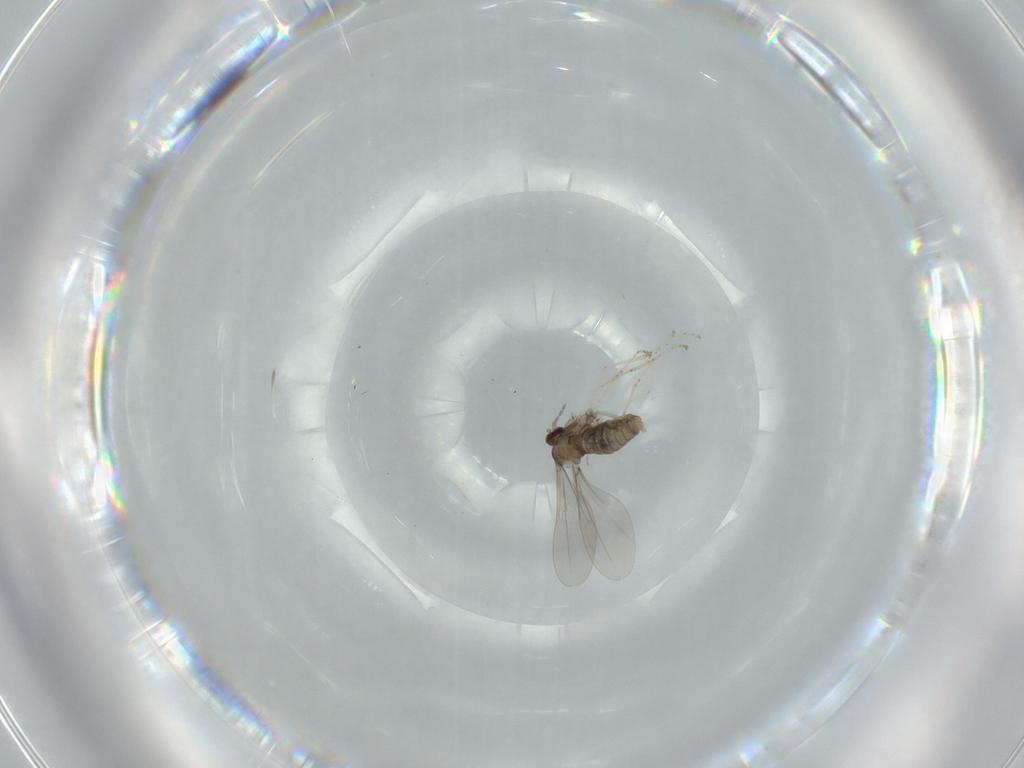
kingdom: Animalia
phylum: Arthropoda
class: Insecta
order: Diptera
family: Cecidomyiidae
